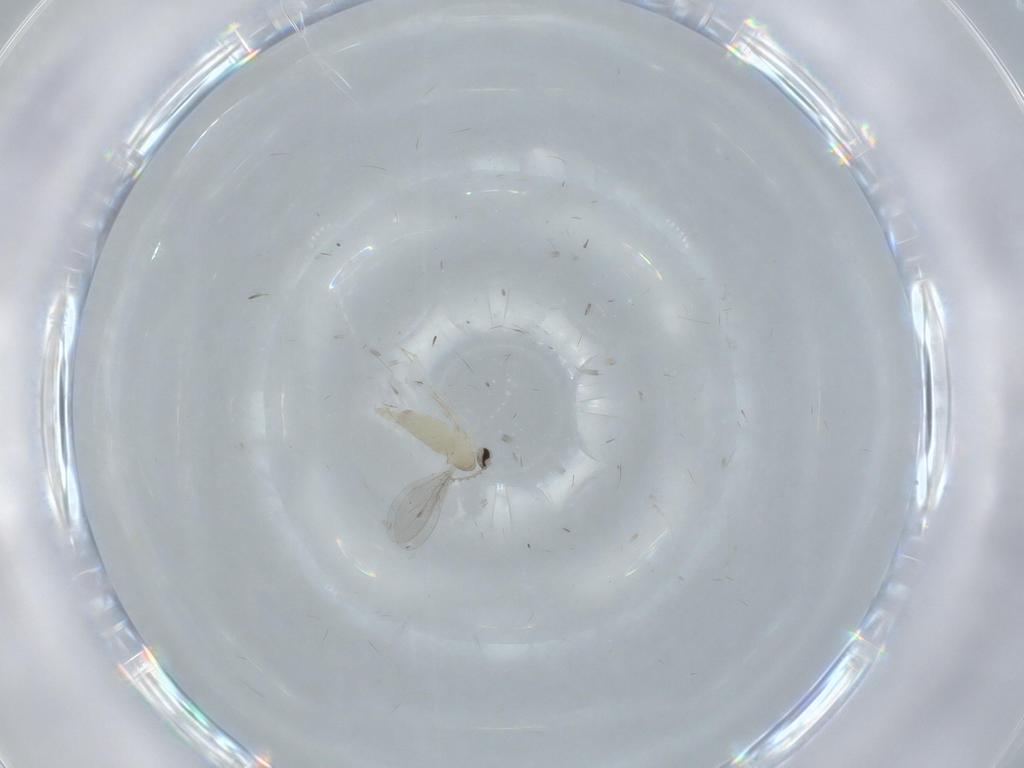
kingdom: Animalia
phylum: Arthropoda
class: Insecta
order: Diptera
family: Cecidomyiidae
